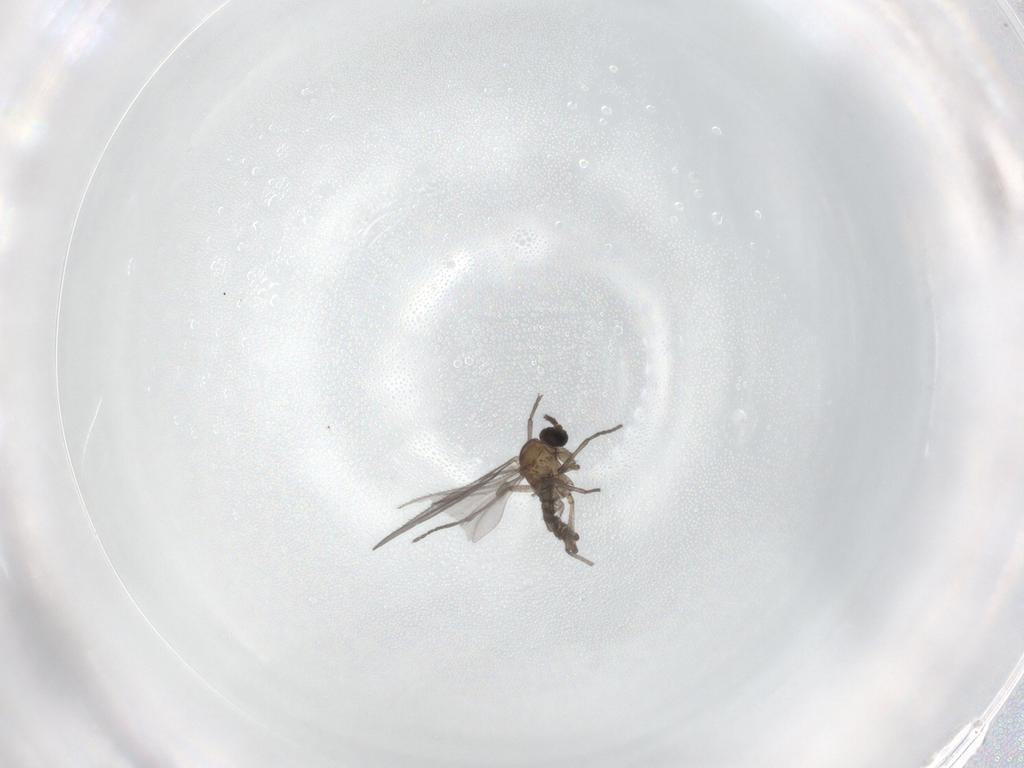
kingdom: Animalia
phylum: Arthropoda
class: Insecta
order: Diptera
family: Sciaridae
